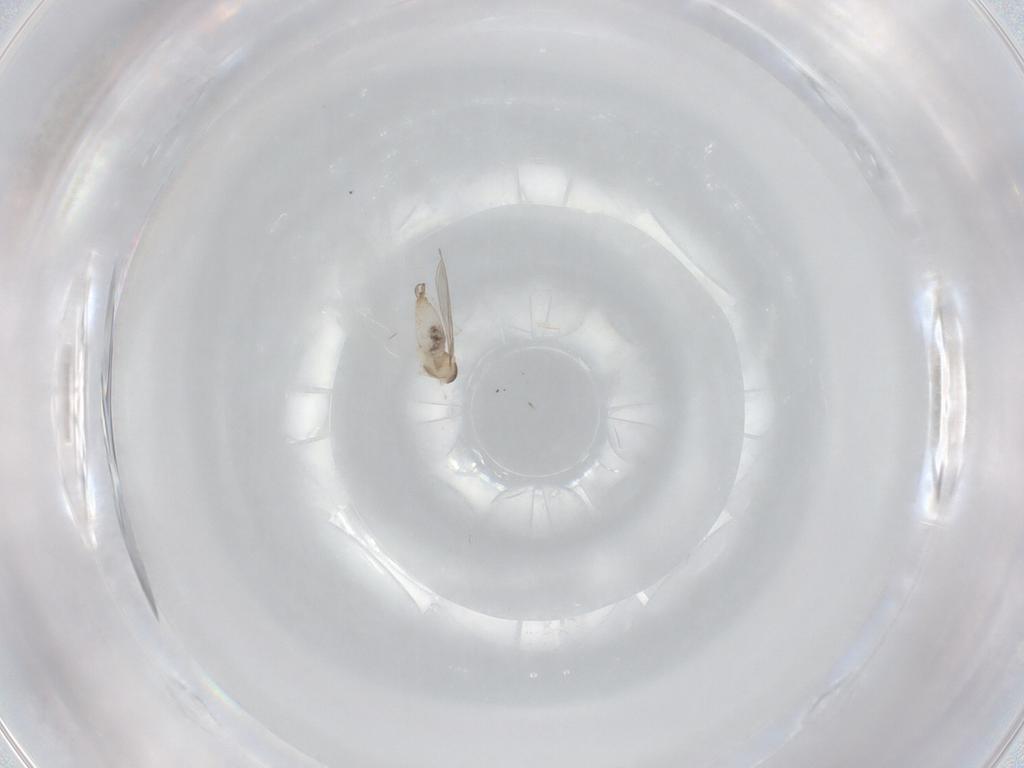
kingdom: Animalia
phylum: Arthropoda
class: Insecta
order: Diptera
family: Cecidomyiidae
